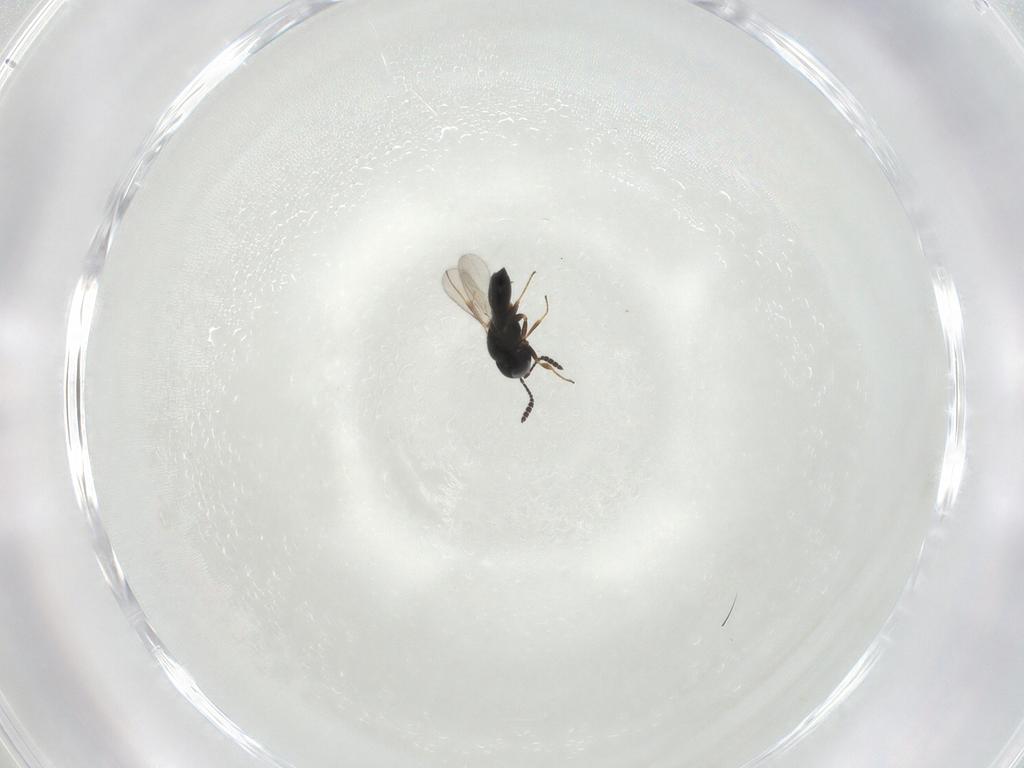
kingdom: Animalia
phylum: Arthropoda
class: Insecta
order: Hymenoptera
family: Scelionidae
